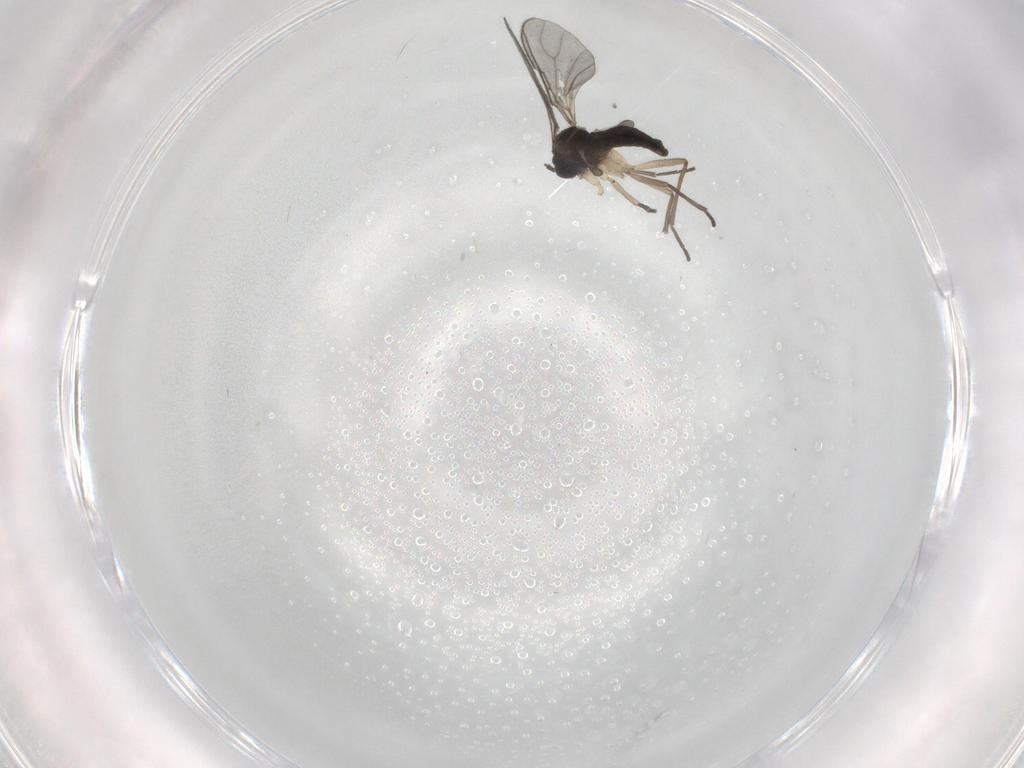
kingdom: Animalia
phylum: Arthropoda
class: Insecta
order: Diptera
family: Sciaridae
